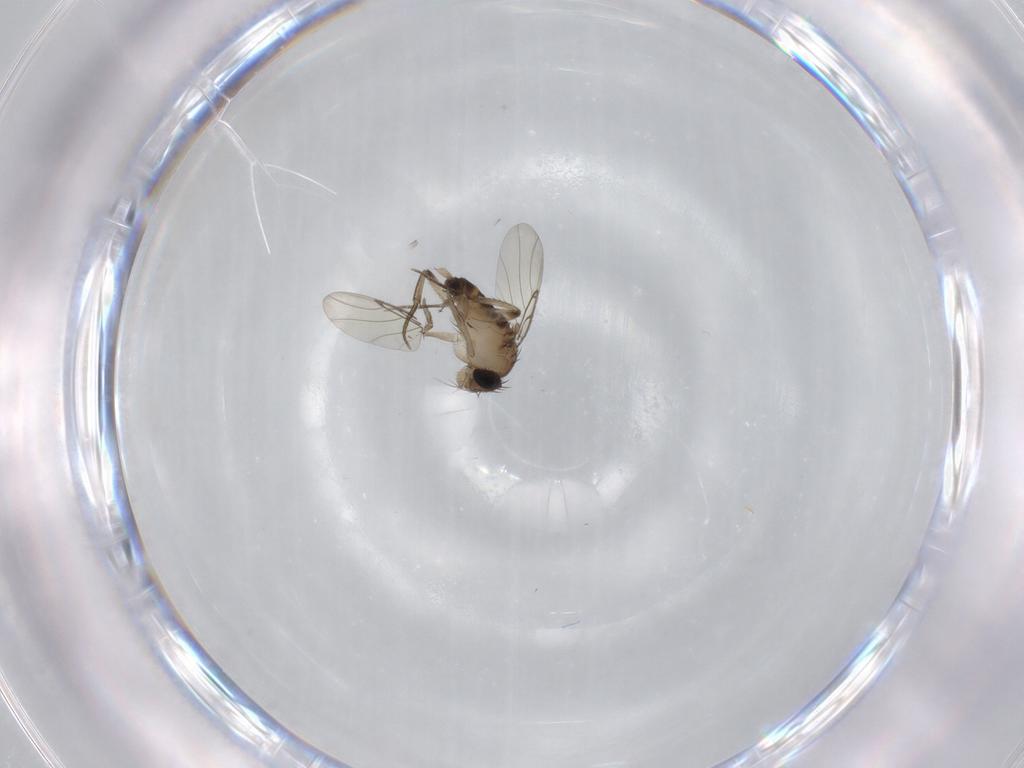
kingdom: Animalia
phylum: Arthropoda
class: Insecta
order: Diptera
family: Phoridae
